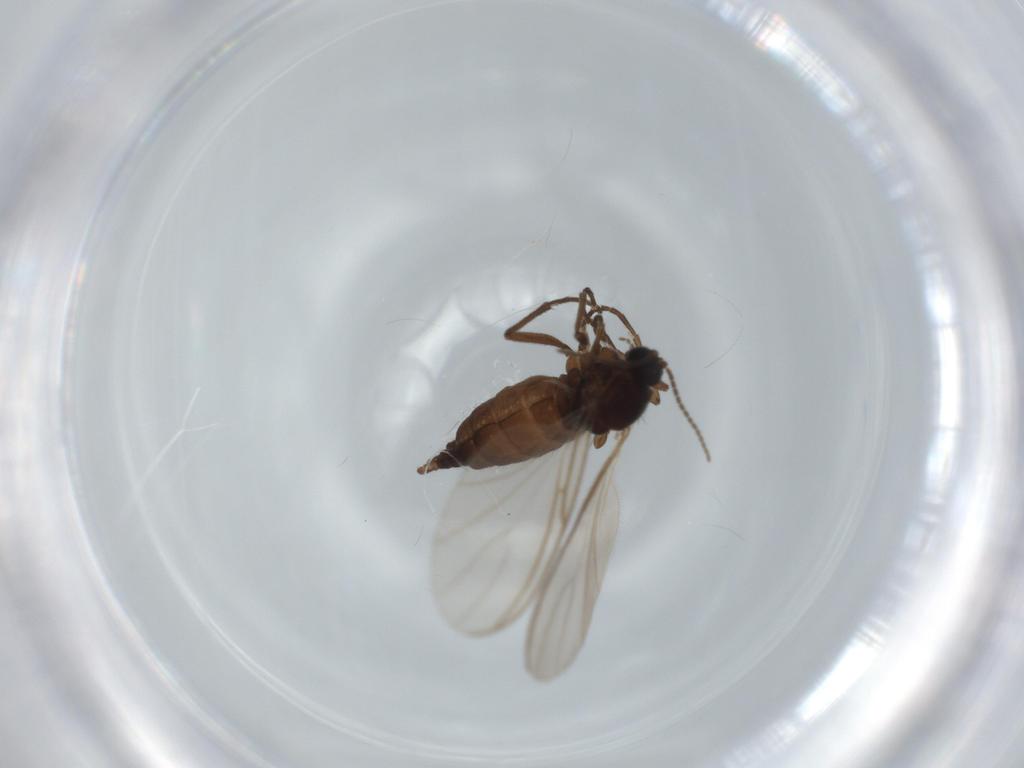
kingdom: Animalia
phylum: Arthropoda
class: Insecta
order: Diptera
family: Sciaridae
